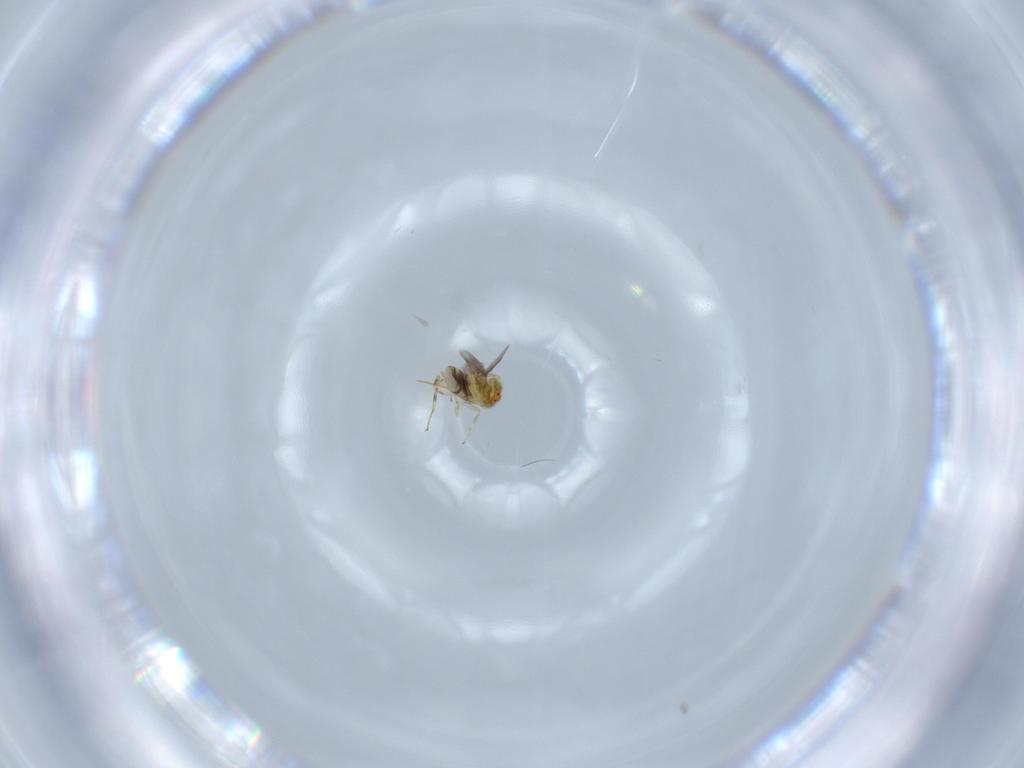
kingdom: Animalia
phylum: Arthropoda
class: Insecta
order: Hymenoptera
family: Aphelinidae
